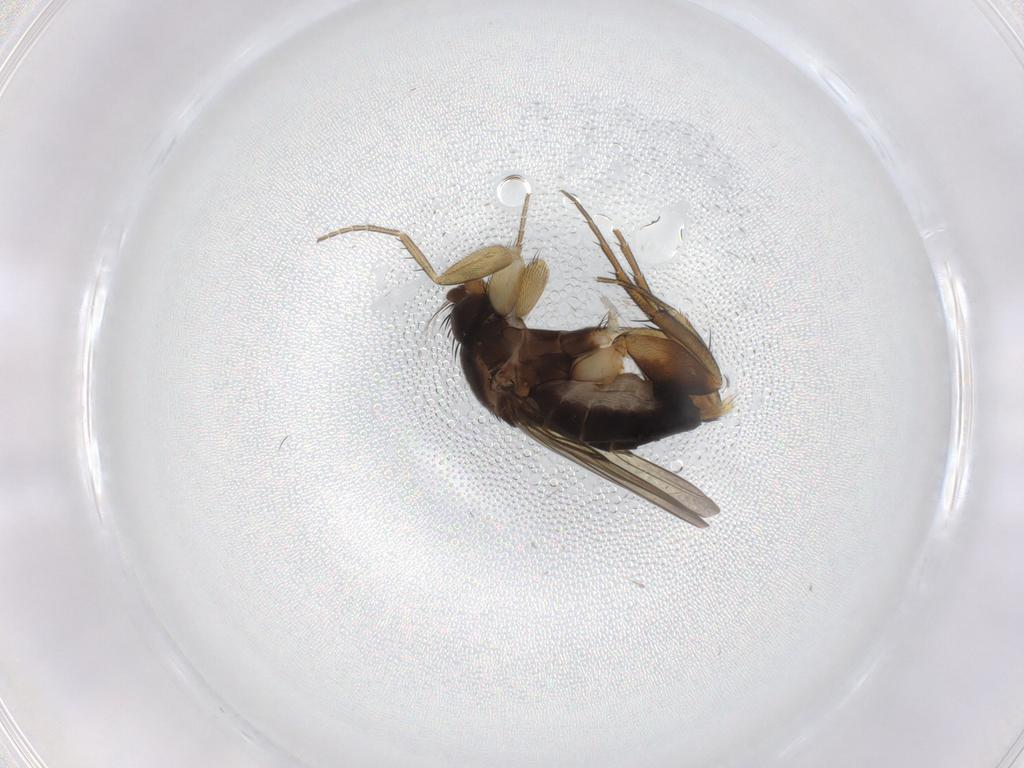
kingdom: Animalia
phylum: Arthropoda
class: Insecta
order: Diptera
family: Phoridae
